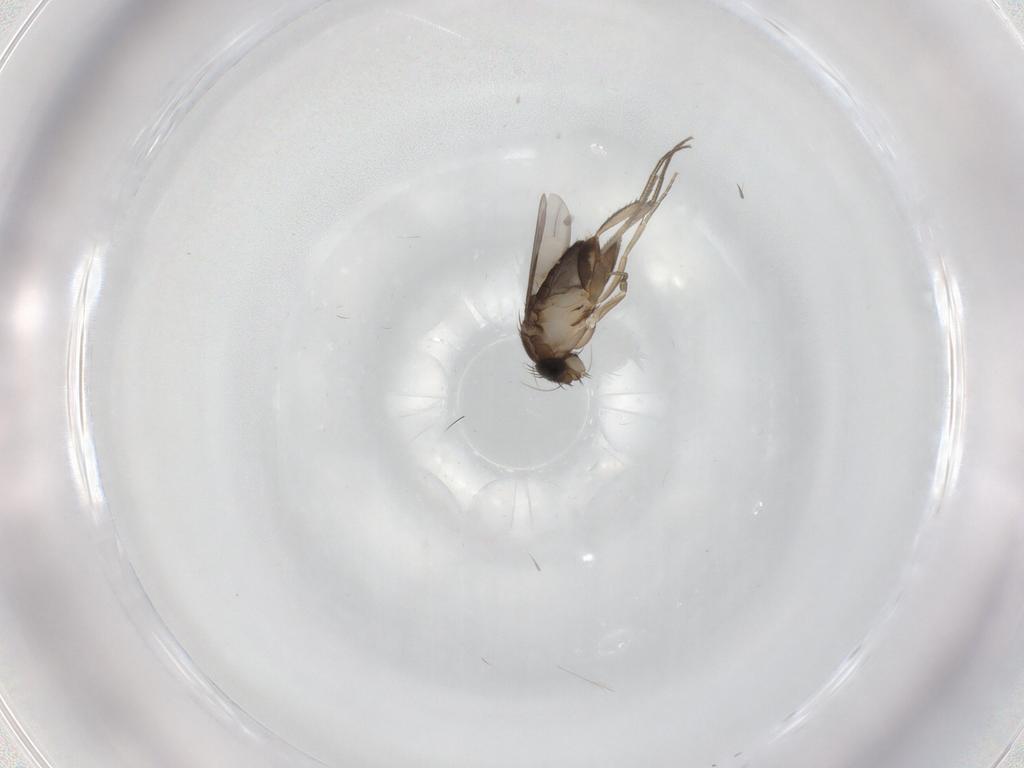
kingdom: Animalia
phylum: Arthropoda
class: Insecta
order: Diptera
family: Phoridae
